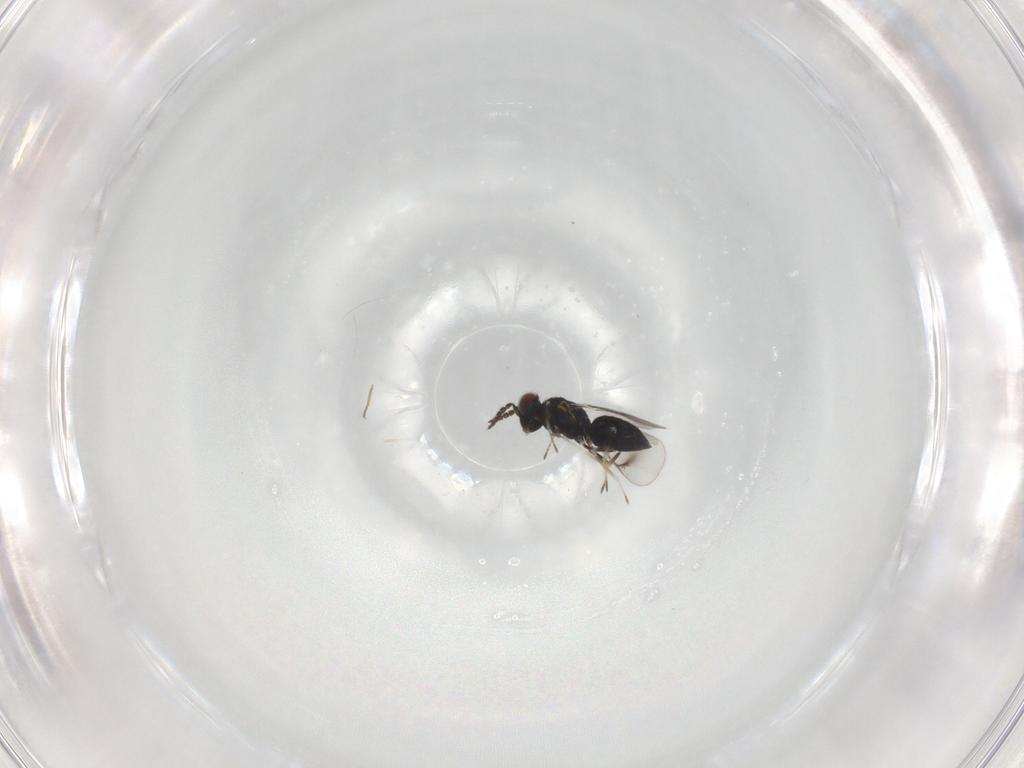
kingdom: Animalia
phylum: Arthropoda
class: Insecta
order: Hymenoptera
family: Eulophidae
